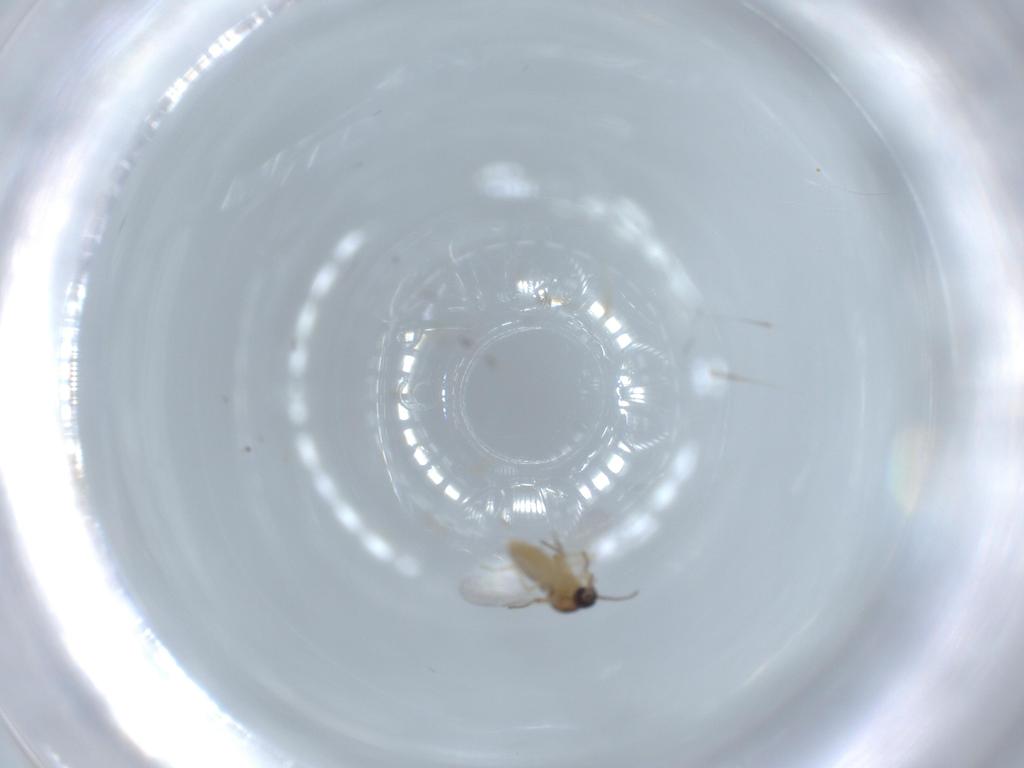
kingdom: Animalia
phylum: Arthropoda
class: Insecta
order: Diptera
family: Ceratopogonidae
